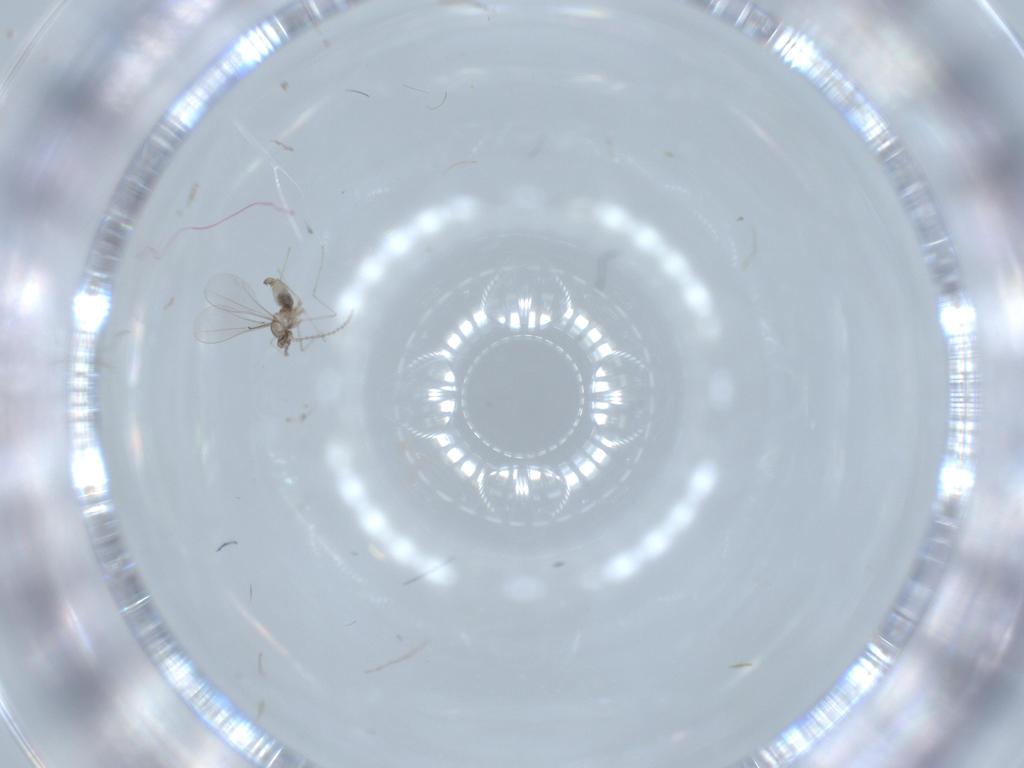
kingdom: Animalia
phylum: Arthropoda
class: Insecta
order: Diptera
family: Cecidomyiidae
